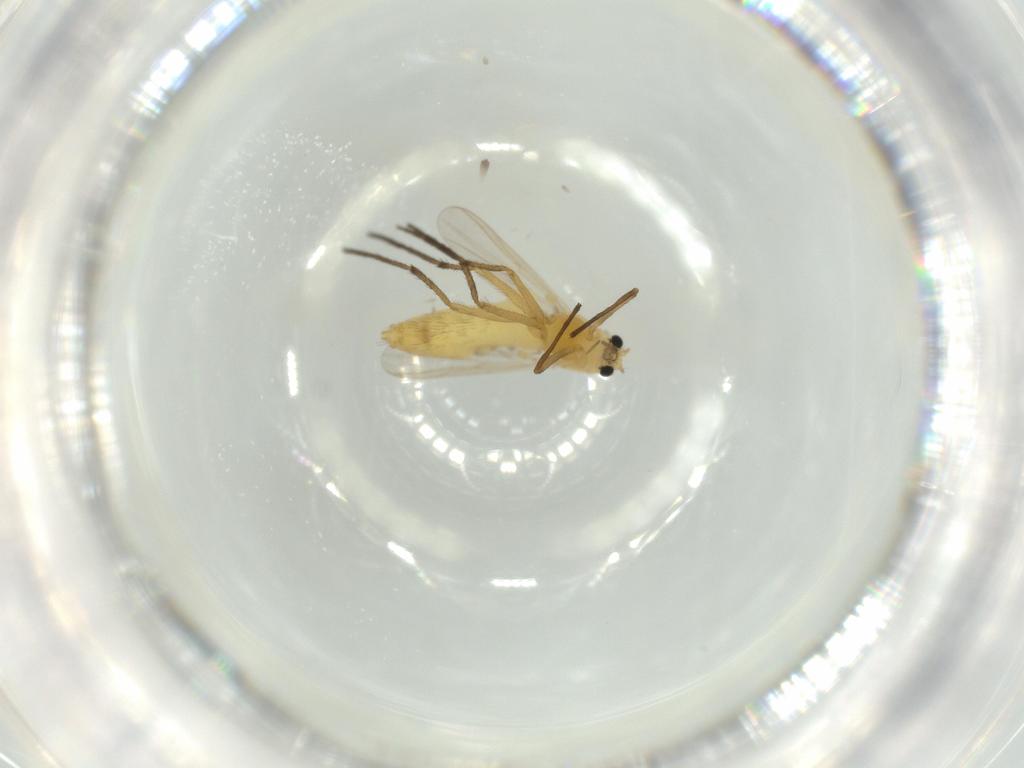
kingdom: Animalia
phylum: Arthropoda
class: Insecta
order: Diptera
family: Chironomidae
